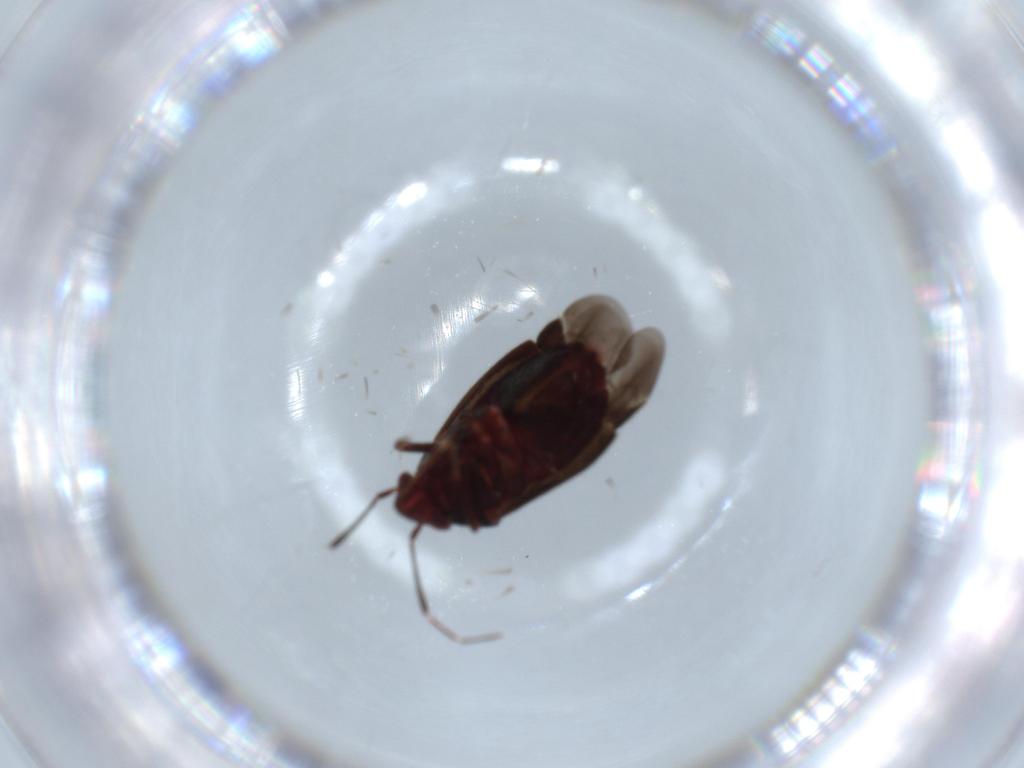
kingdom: Animalia
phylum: Arthropoda
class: Insecta
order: Hemiptera
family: Miridae
